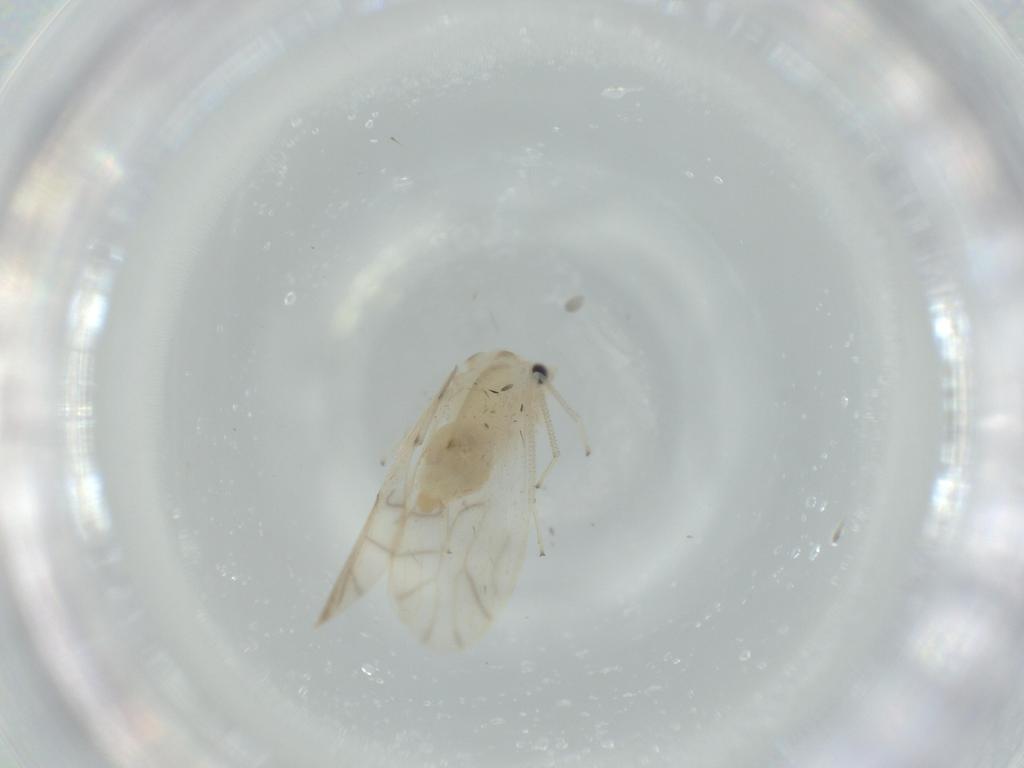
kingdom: Animalia
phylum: Arthropoda
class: Insecta
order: Psocodea
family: Caeciliusidae
